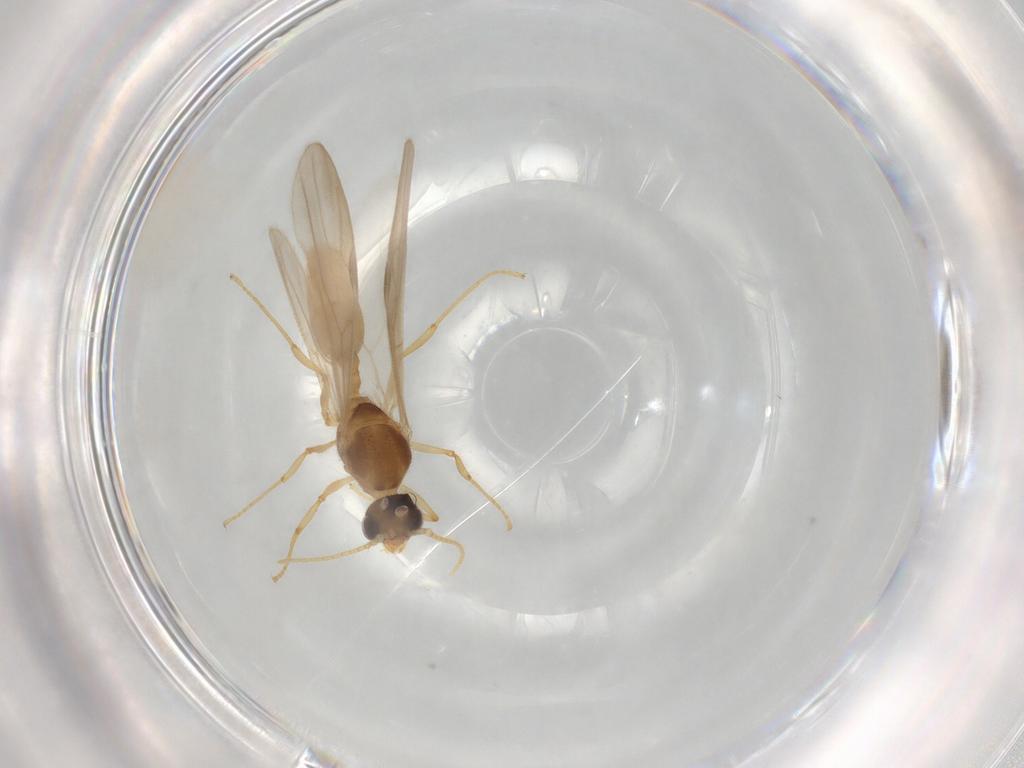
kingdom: Animalia
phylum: Arthropoda
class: Insecta
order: Hymenoptera
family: Formicidae
